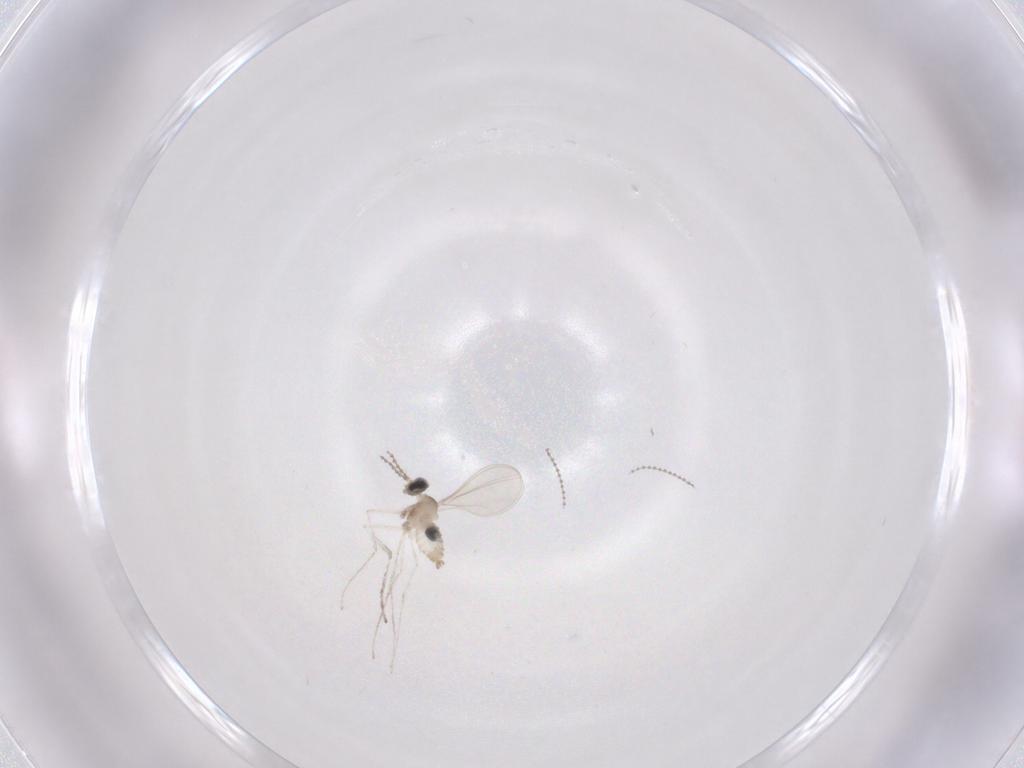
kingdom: Animalia
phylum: Arthropoda
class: Insecta
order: Diptera
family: Cecidomyiidae
